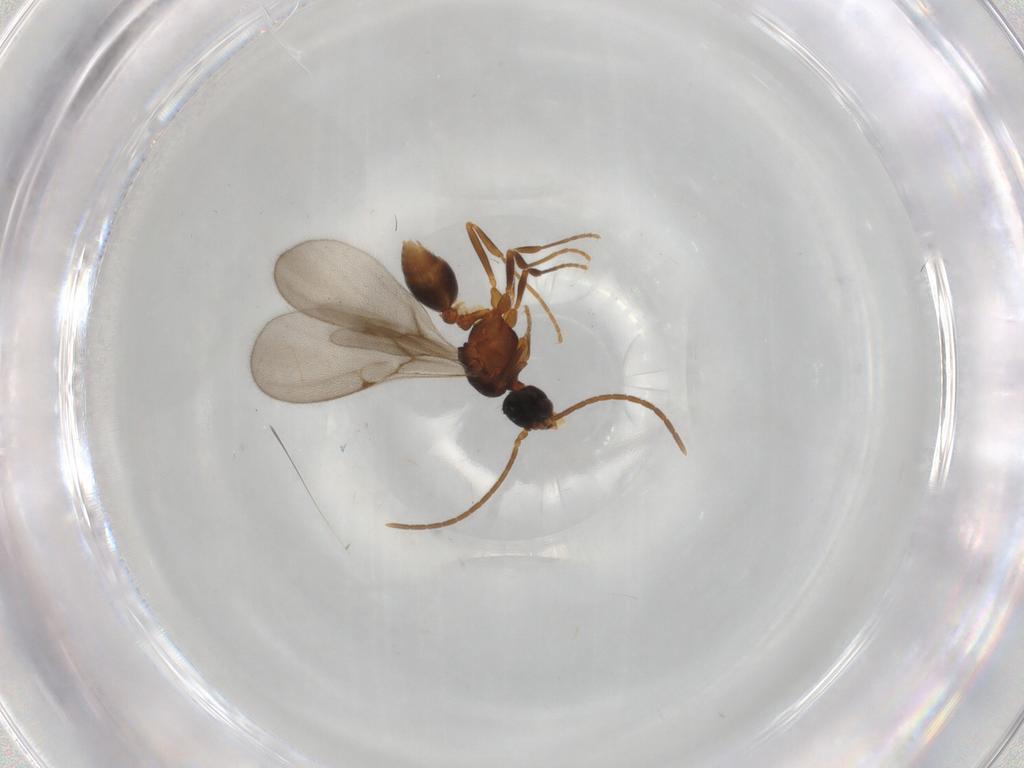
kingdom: Animalia
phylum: Arthropoda
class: Insecta
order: Hymenoptera
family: Formicidae
